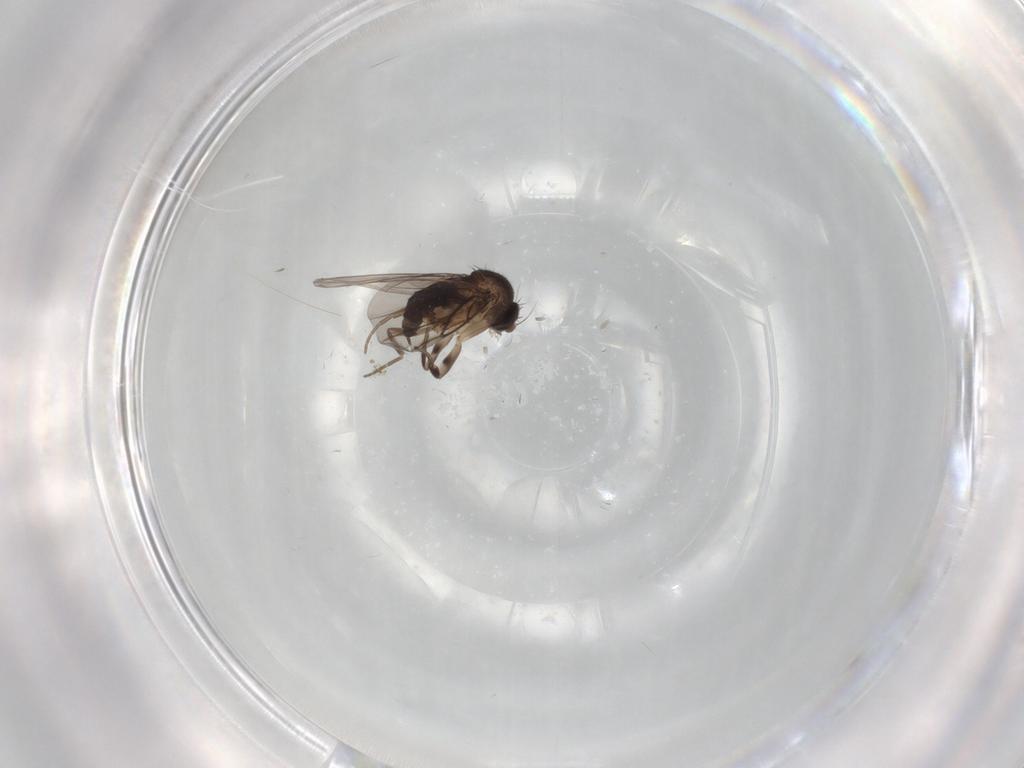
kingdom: Animalia
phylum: Arthropoda
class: Insecta
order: Diptera
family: Phoridae
